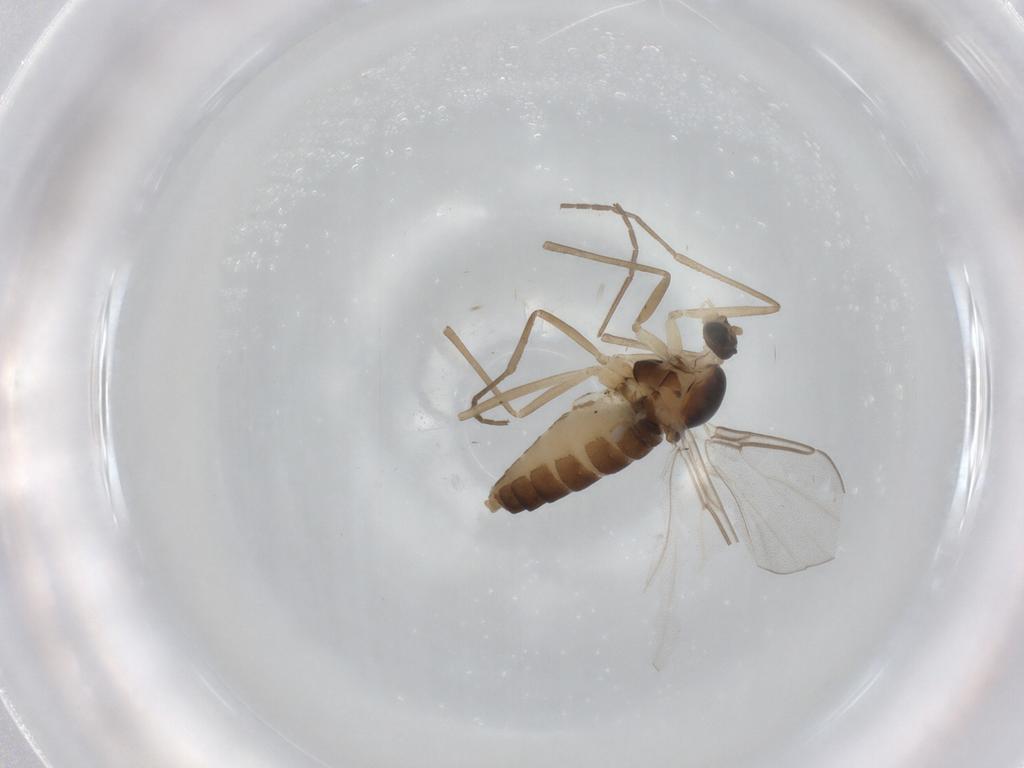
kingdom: Animalia
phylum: Arthropoda
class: Insecta
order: Diptera
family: Cecidomyiidae
